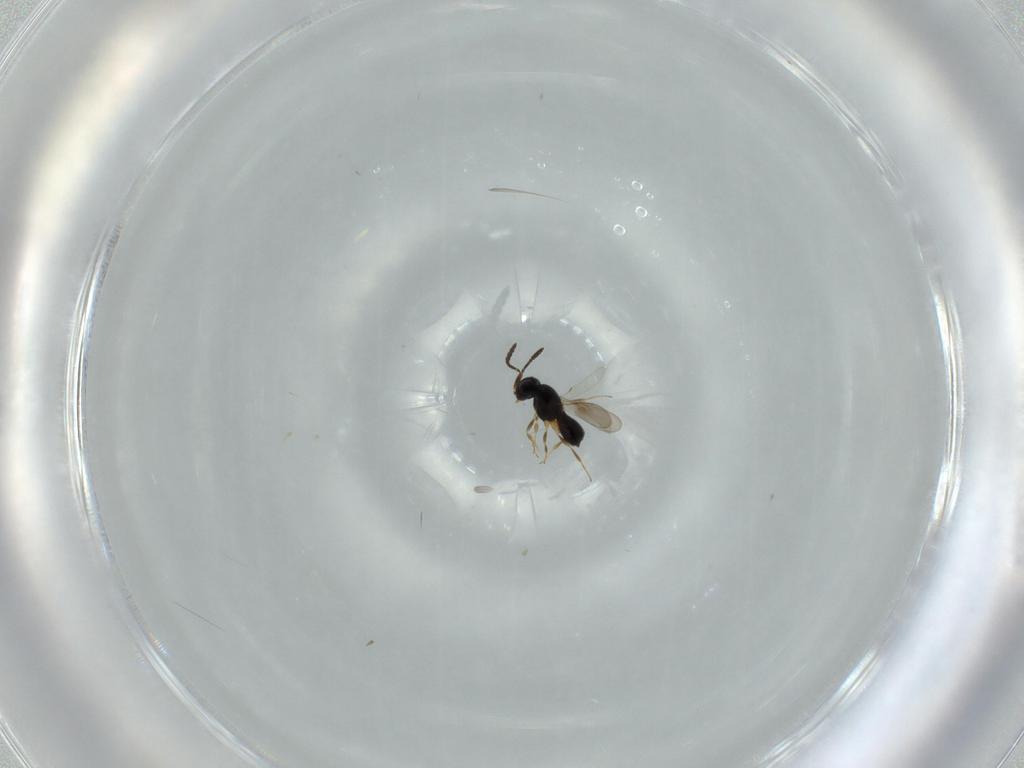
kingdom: Animalia
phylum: Arthropoda
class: Insecta
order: Hymenoptera
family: Scelionidae
